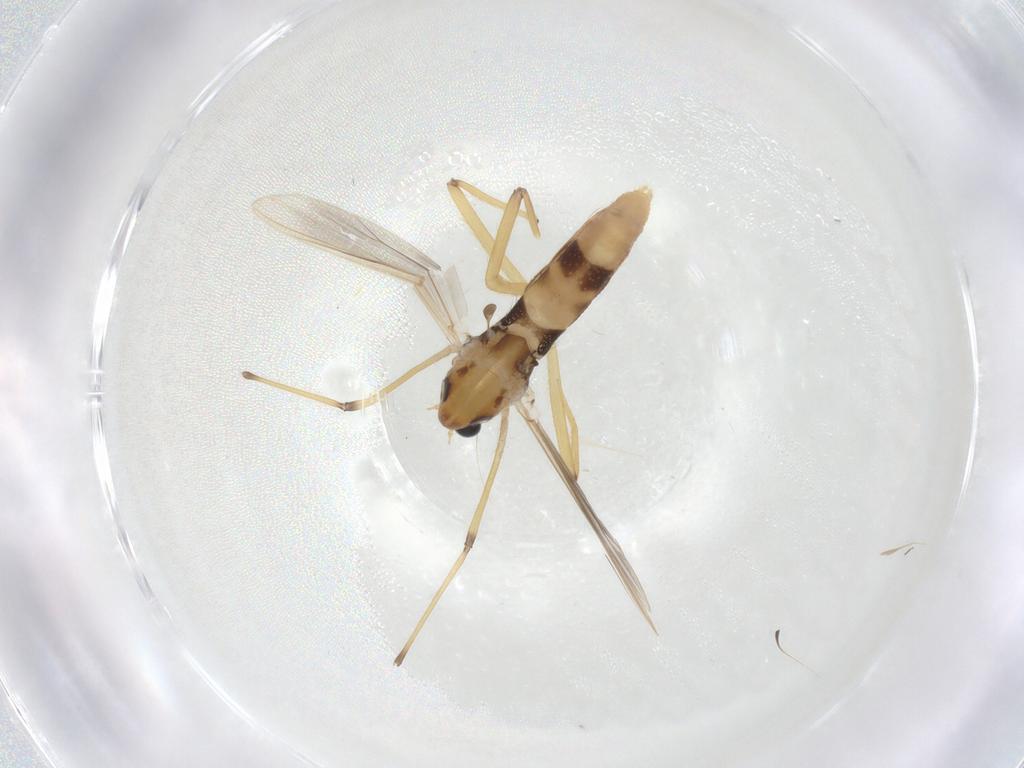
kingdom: Animalia
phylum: Arthropoda
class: Insecta
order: Diptera
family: Chironomidae
